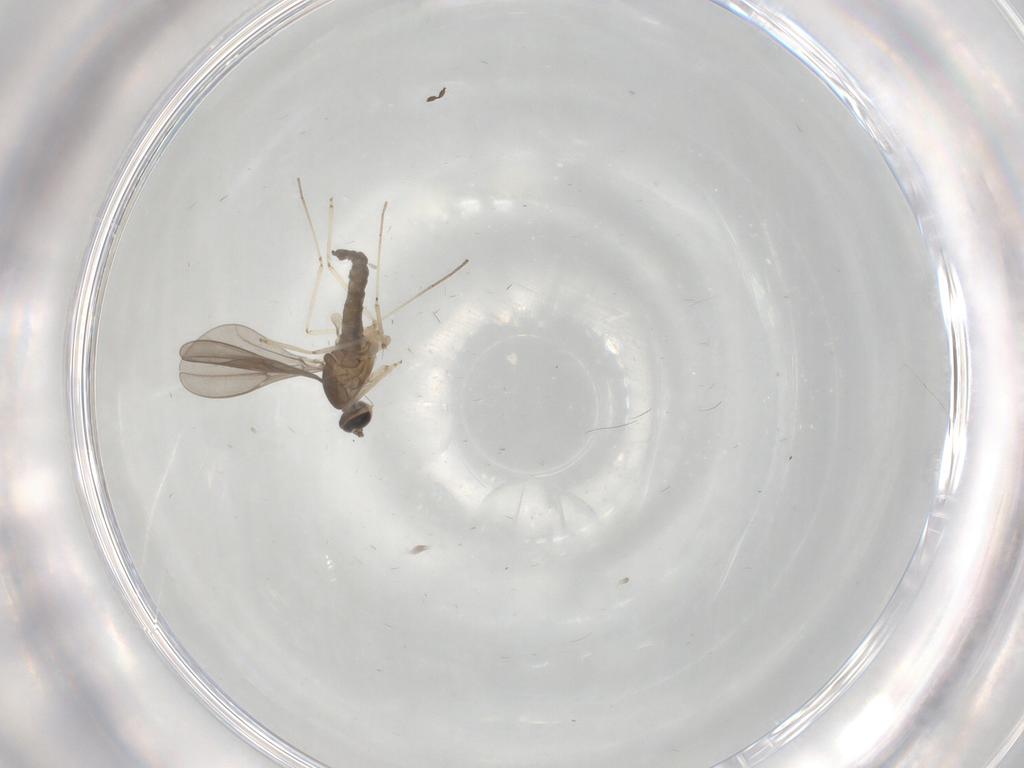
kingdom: Animalia
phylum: Arthropoda
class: Insecta
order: Diptera
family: Cecidomyiidae
